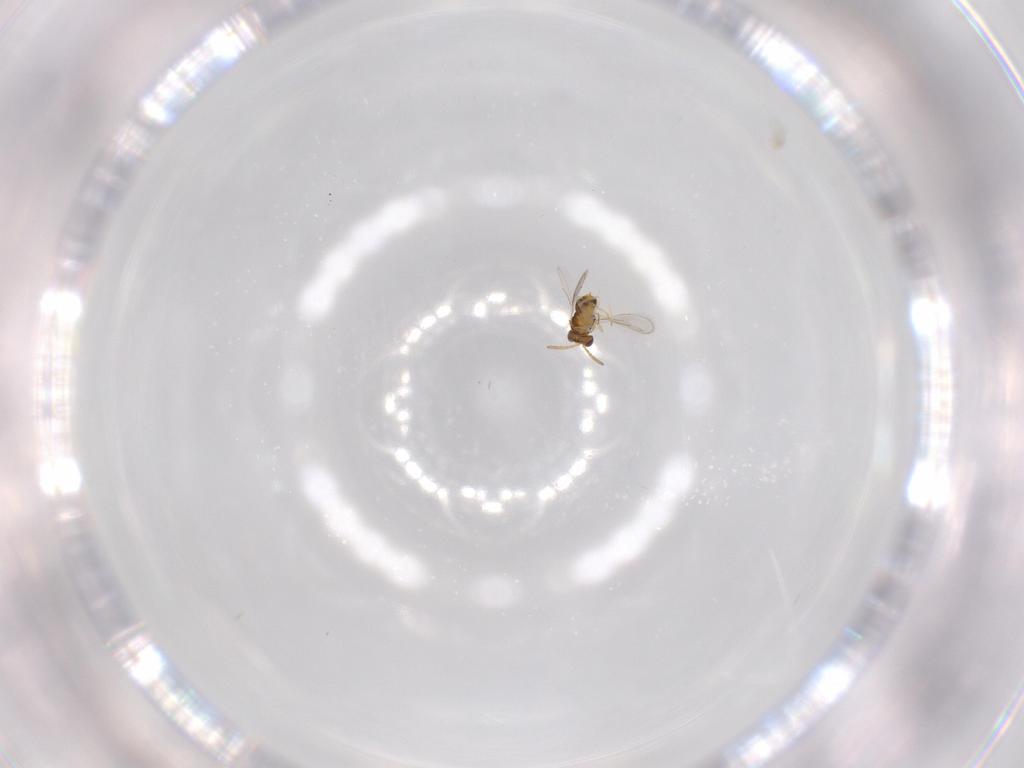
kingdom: Animalia
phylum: Arthropoda
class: Insecta
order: Hymenoptera
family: Aphelinidae
